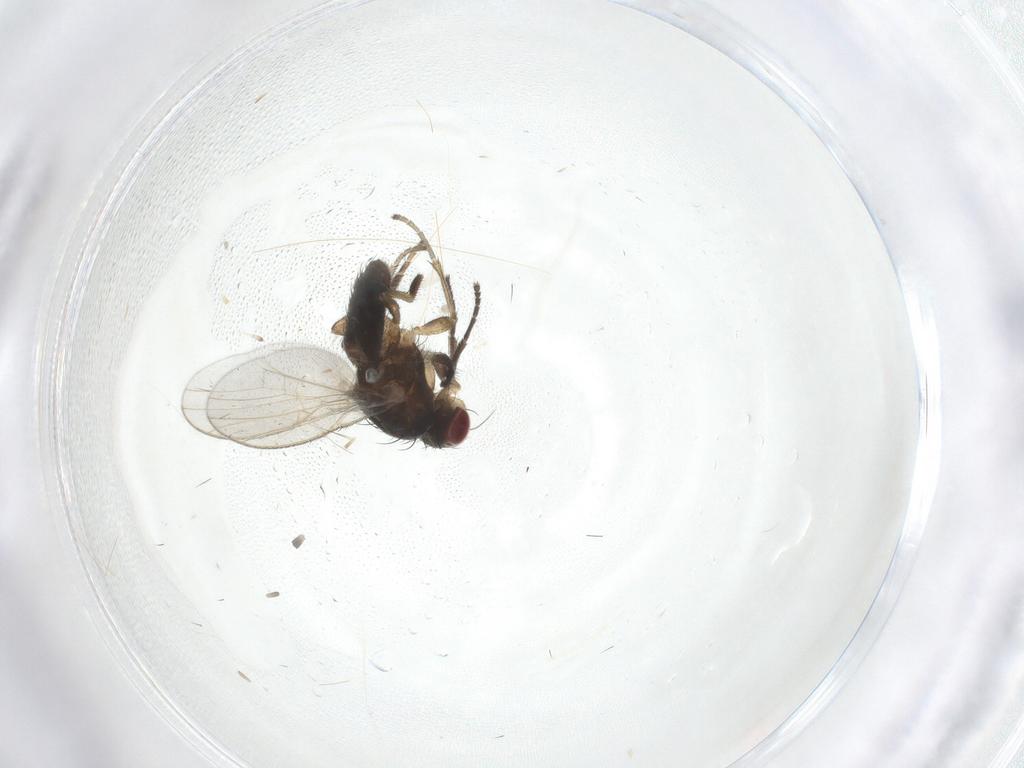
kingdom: Animalia
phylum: Arthropoda
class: Insecta
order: Diptera
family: Heleomyzidae
